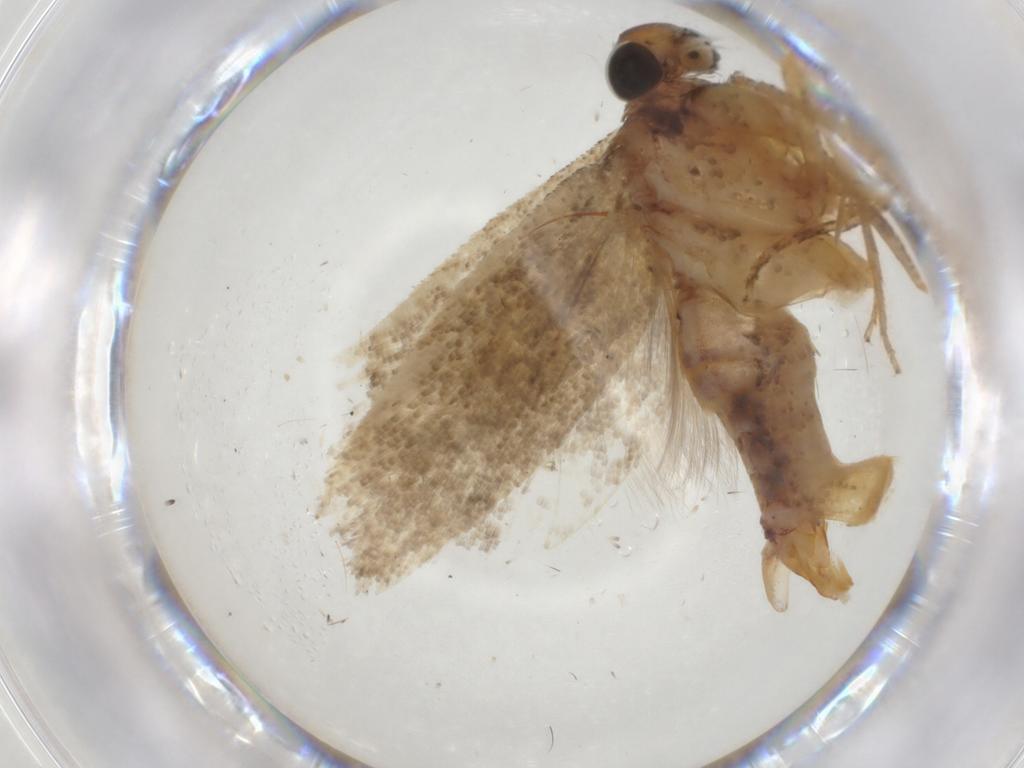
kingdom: Animalia
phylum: Arthropoda
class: Insecta
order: Lepidoptera
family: Gelechiidae
